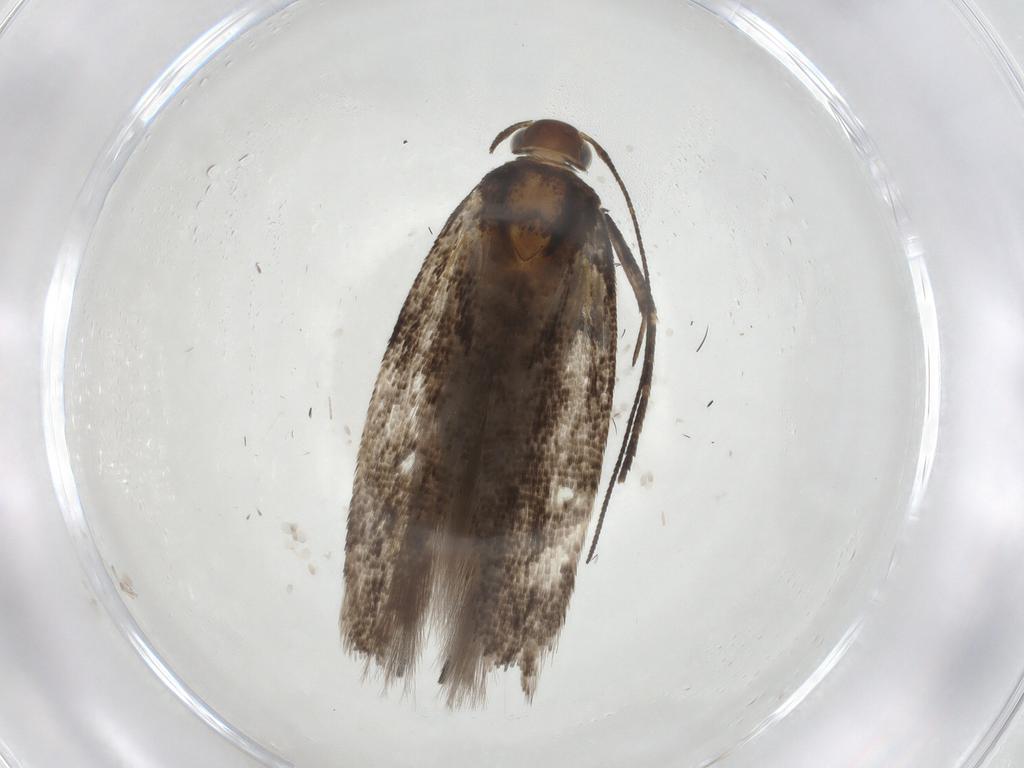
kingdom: Animalia
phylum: Arthropoda
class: Insecta
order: Lepidoptera
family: Gelechiidae
